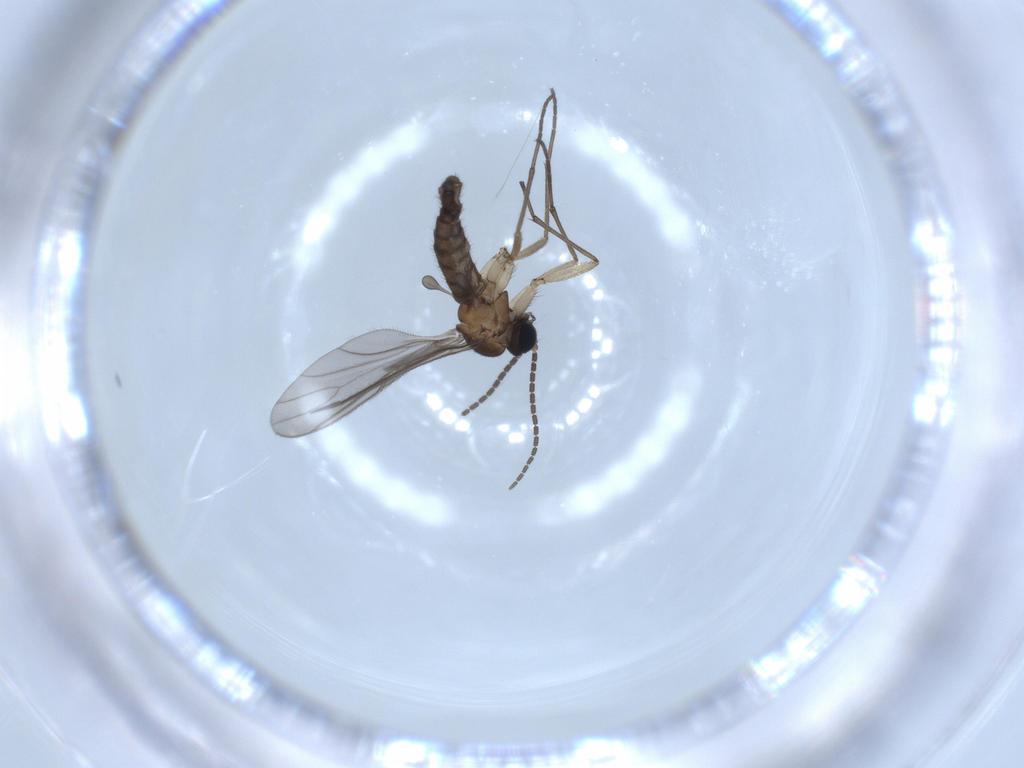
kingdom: Animalia
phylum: Arthropoda
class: Insecta
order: Diptera
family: Sciaridae
